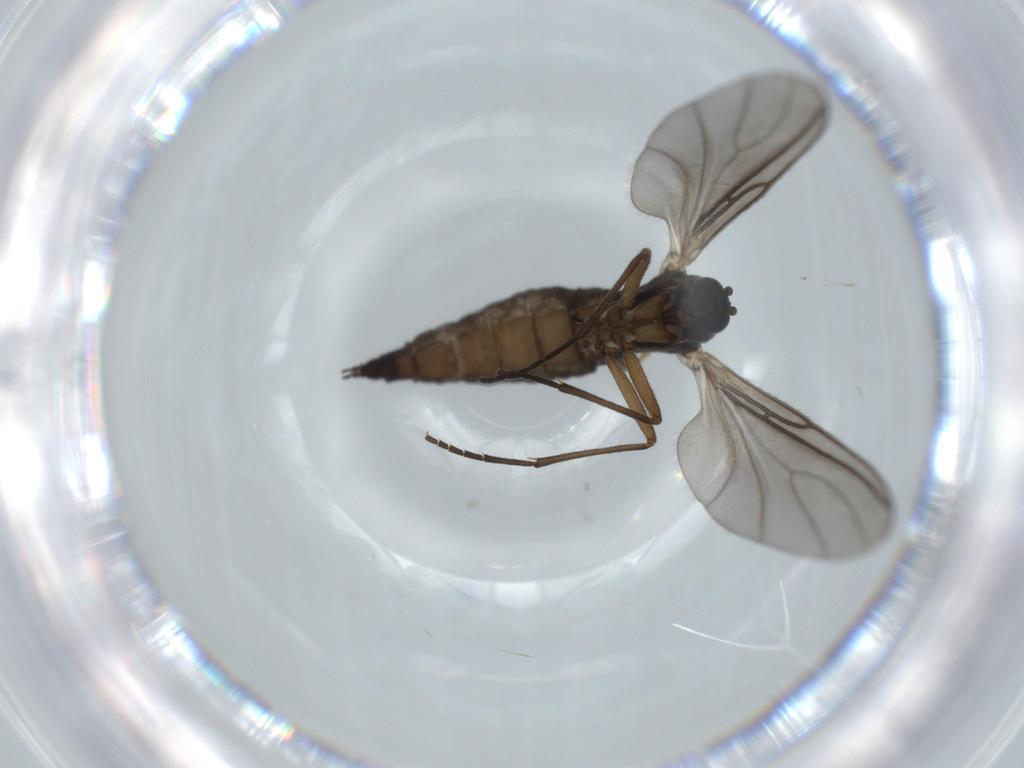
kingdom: Animalia
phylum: Arthropoda
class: Insecta
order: Diptera
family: Sciaridae
